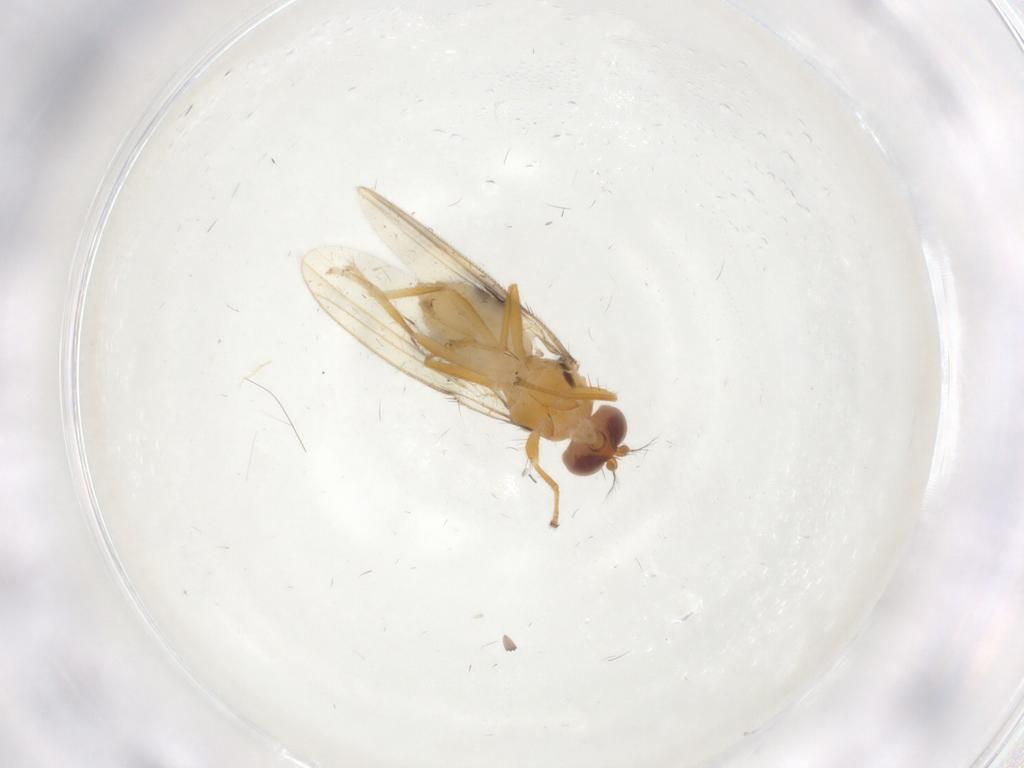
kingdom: Animalia
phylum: Arthropoda
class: Insecta
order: Diptera
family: Periscelididae
